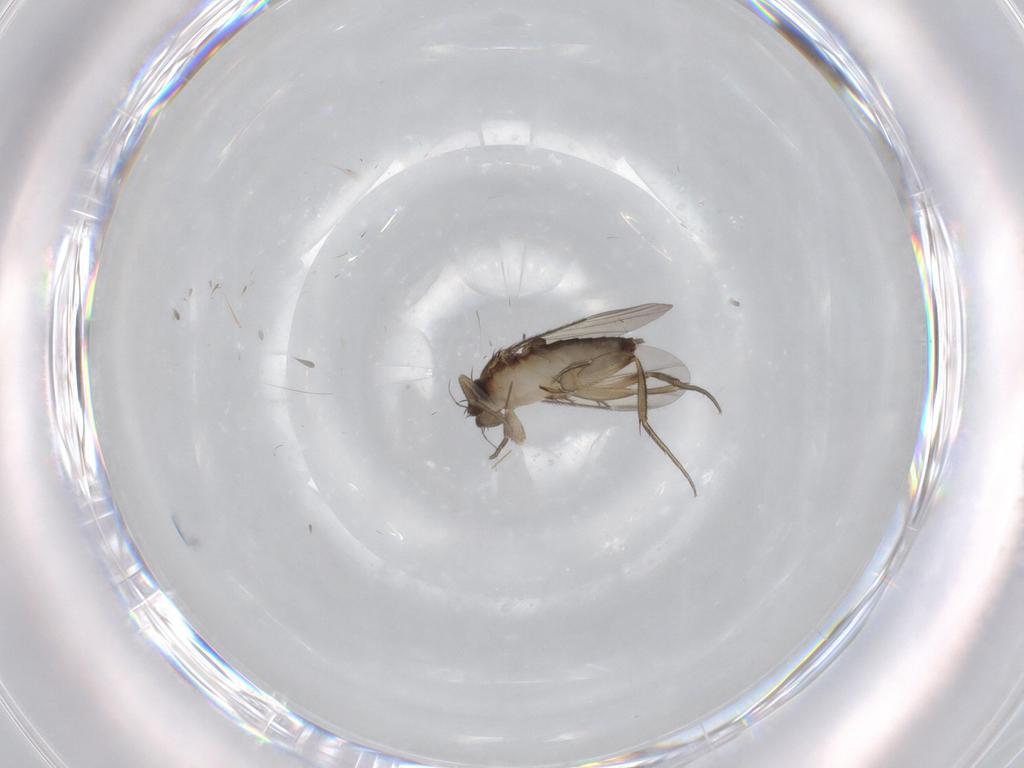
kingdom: Animalia
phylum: Arthropoda
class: Insecta
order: Diptera
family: Phoridae
